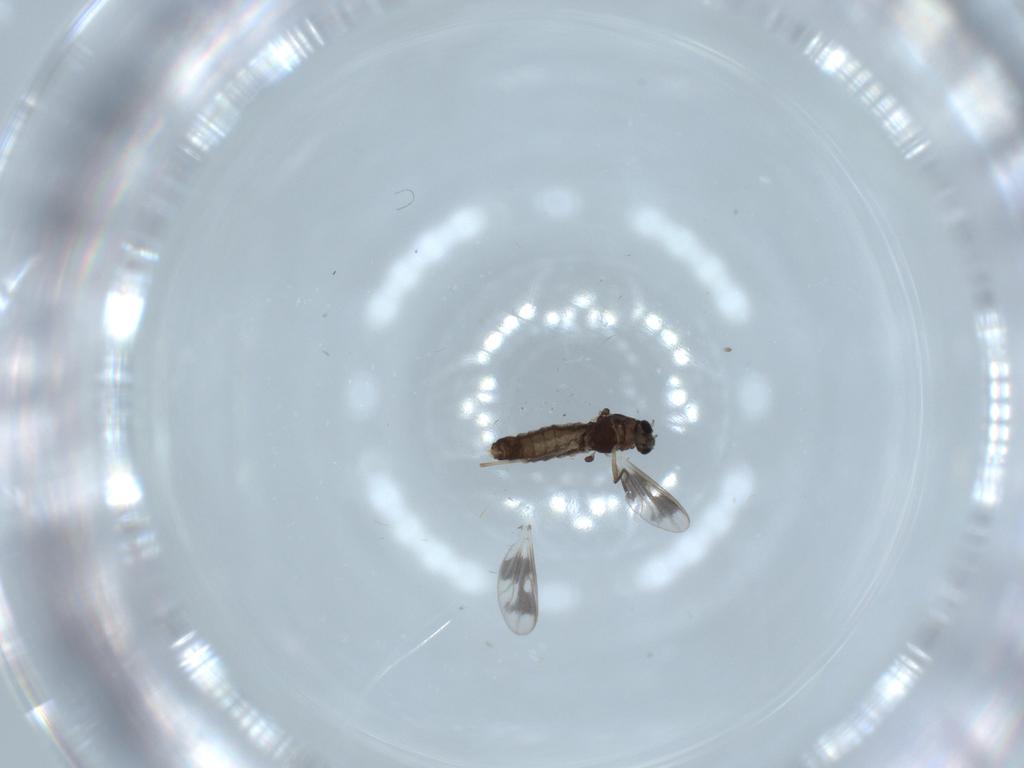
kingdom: Animalia
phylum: Arthropoda
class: Insecta
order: Diptera
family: Chironomidae
